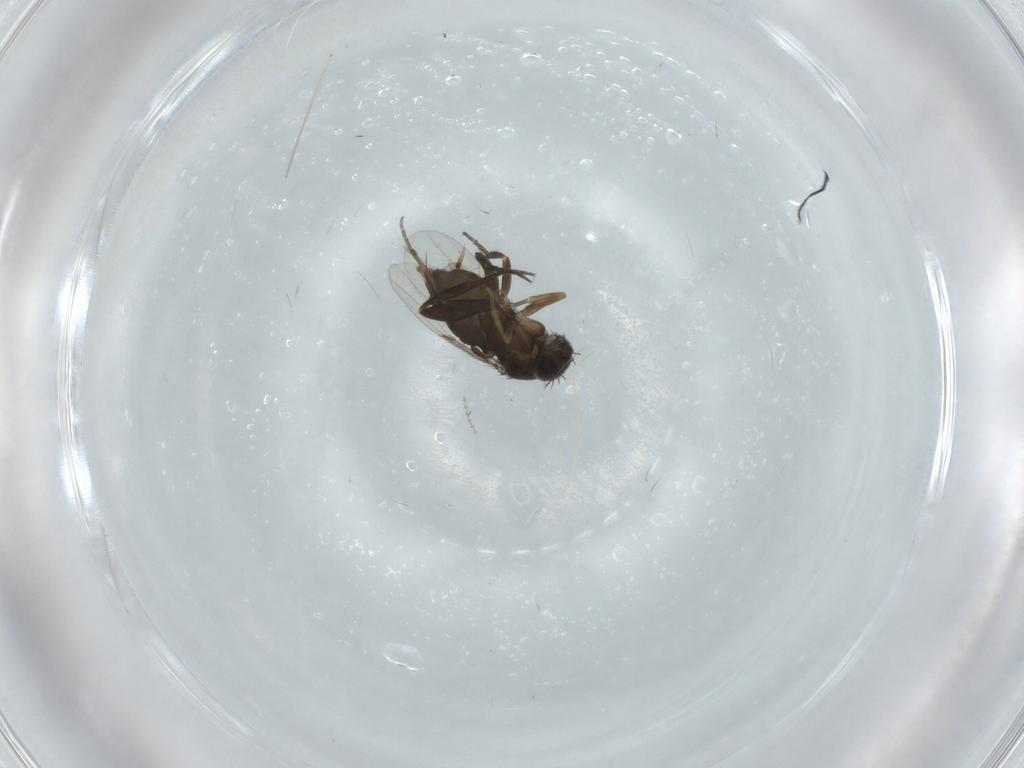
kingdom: Animalia
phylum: Arthropoda
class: Insecta
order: Diptera
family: Phoridae
